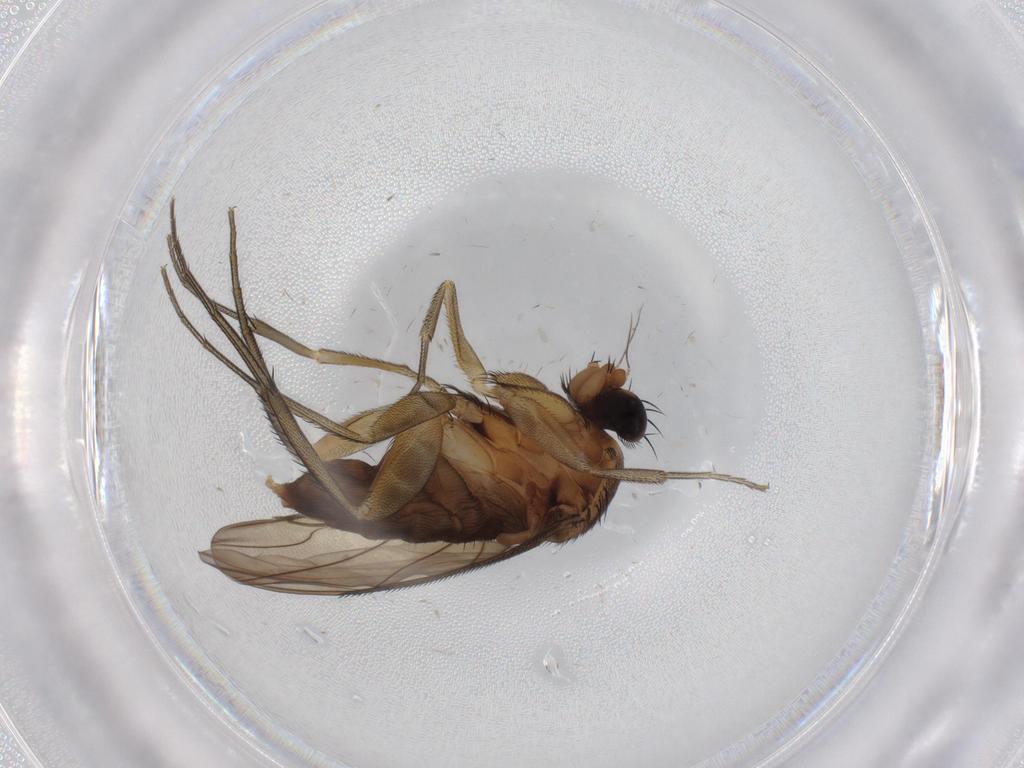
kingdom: Animalia
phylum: Arthropoda
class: Insecta
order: Diptera
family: Phoridae
